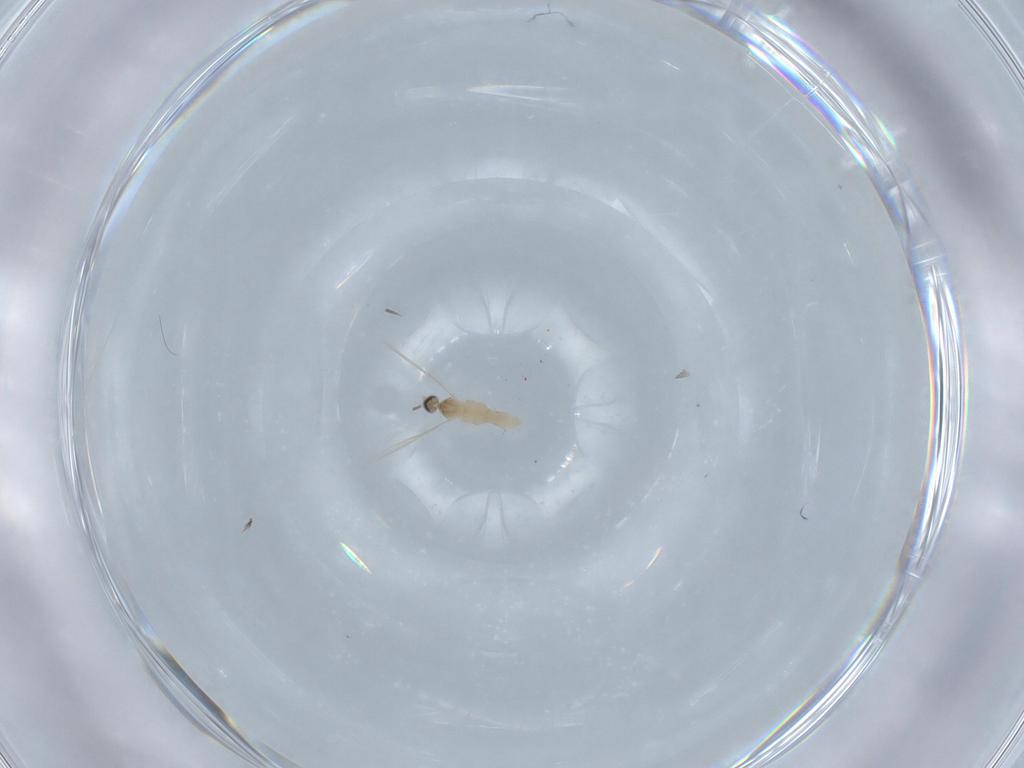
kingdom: Animalia
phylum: Arthropoda
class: Insecta
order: Diptera
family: Cecidomyiidae
